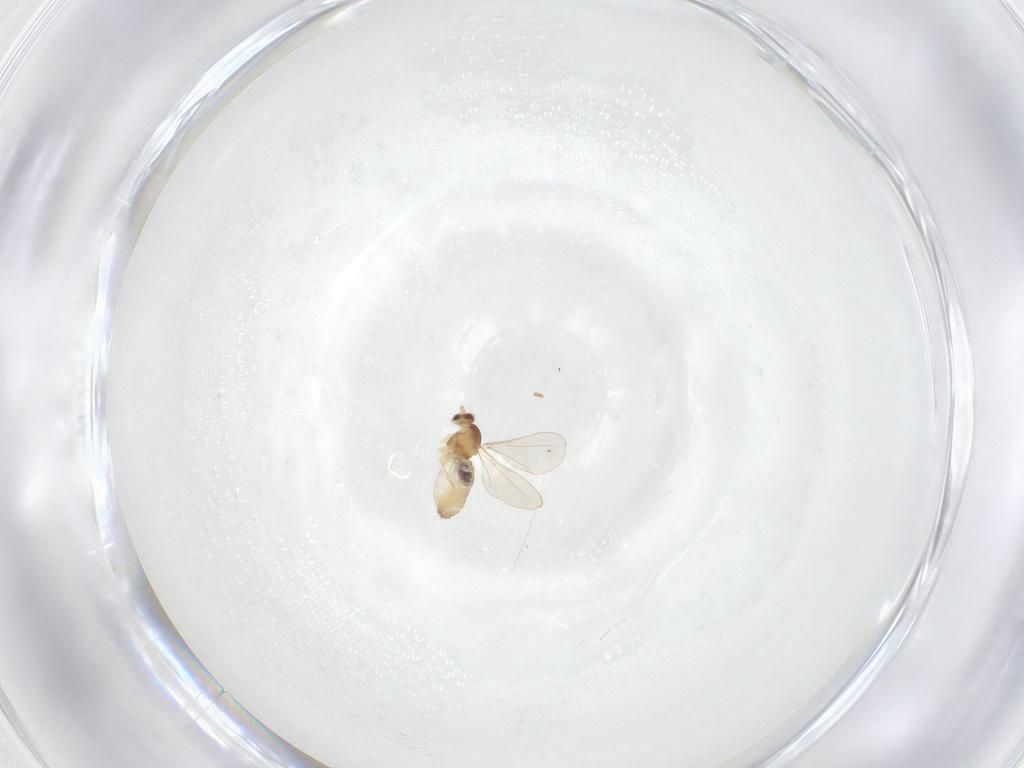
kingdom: Animalia
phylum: Arthropoda
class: Insecta
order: Diptera
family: Cecidomyiidae
